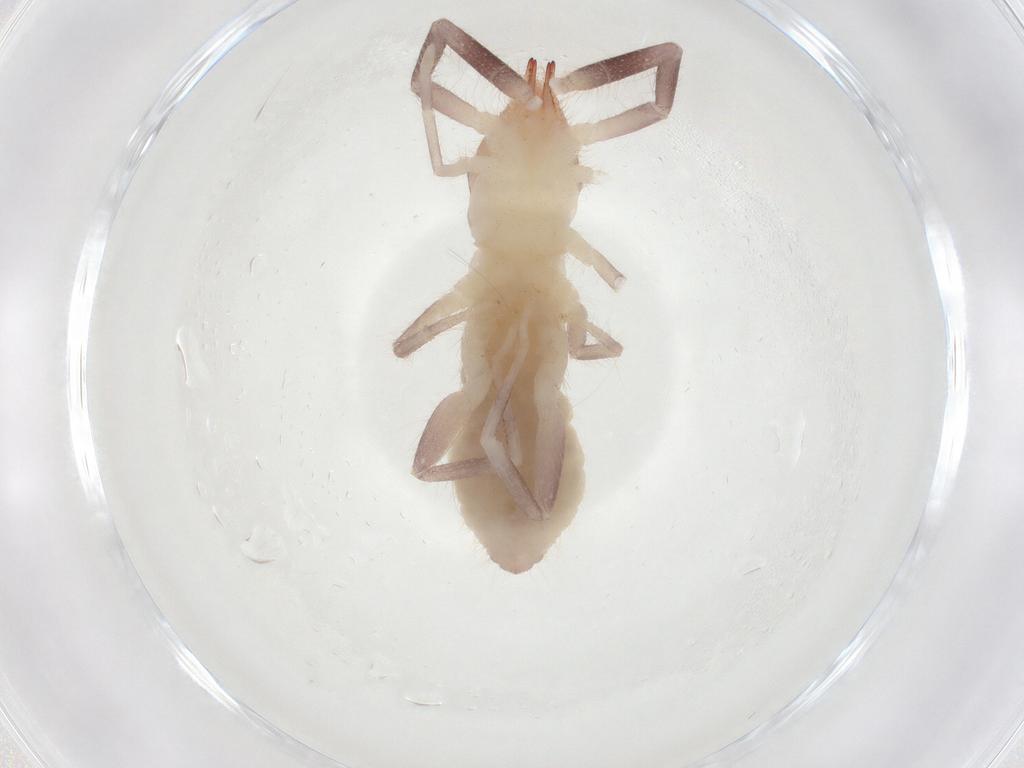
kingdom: Animalia
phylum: Arthropoda
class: Arachnida
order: Solifugae
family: Ammotrechidae
